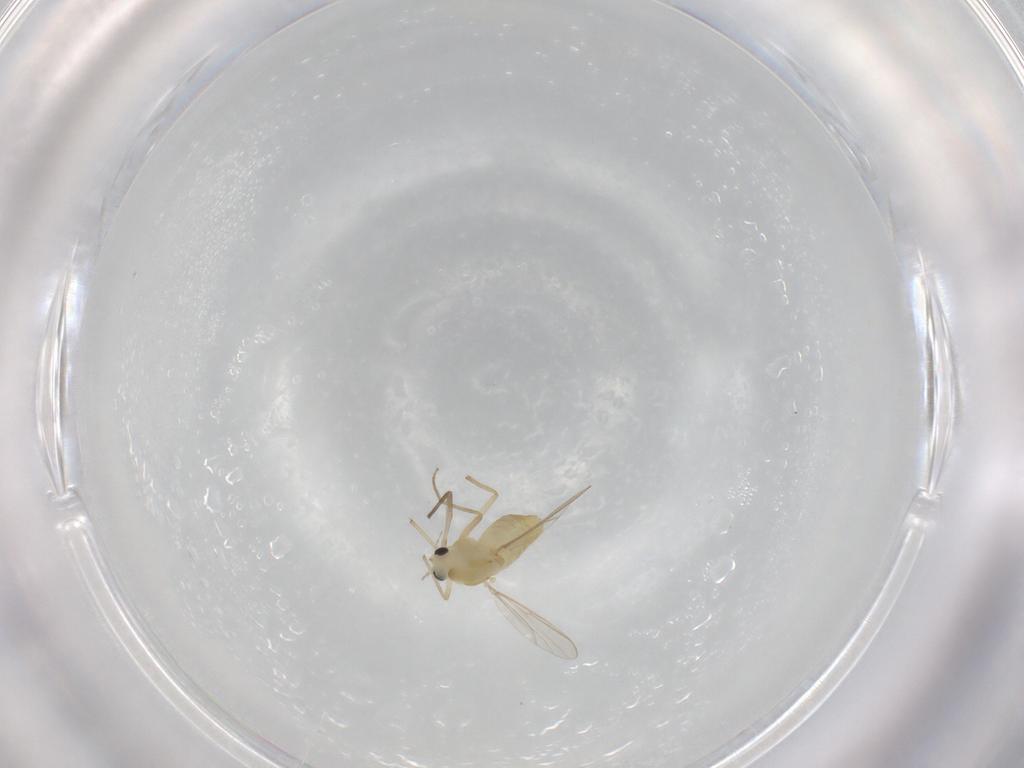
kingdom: Animalia
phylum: Arthropoda
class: Insecta
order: Diptera
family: Chironomidae
